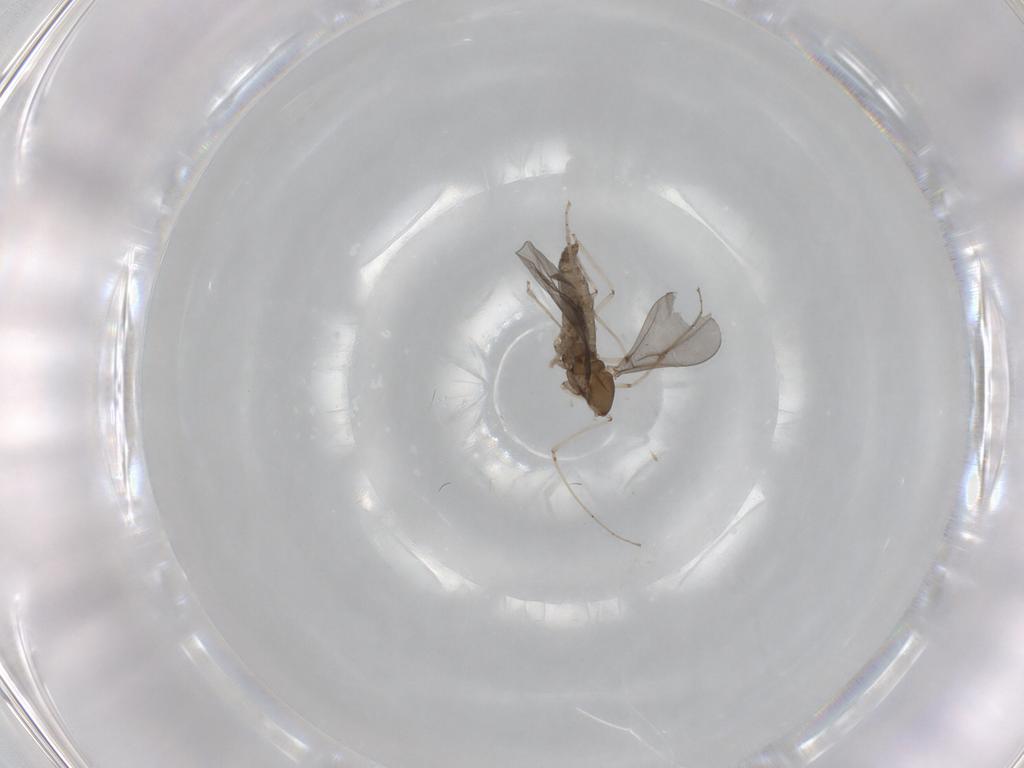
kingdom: Animalia
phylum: Arthropoda
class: Insecta
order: Diptera
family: Cecidomyiidae
